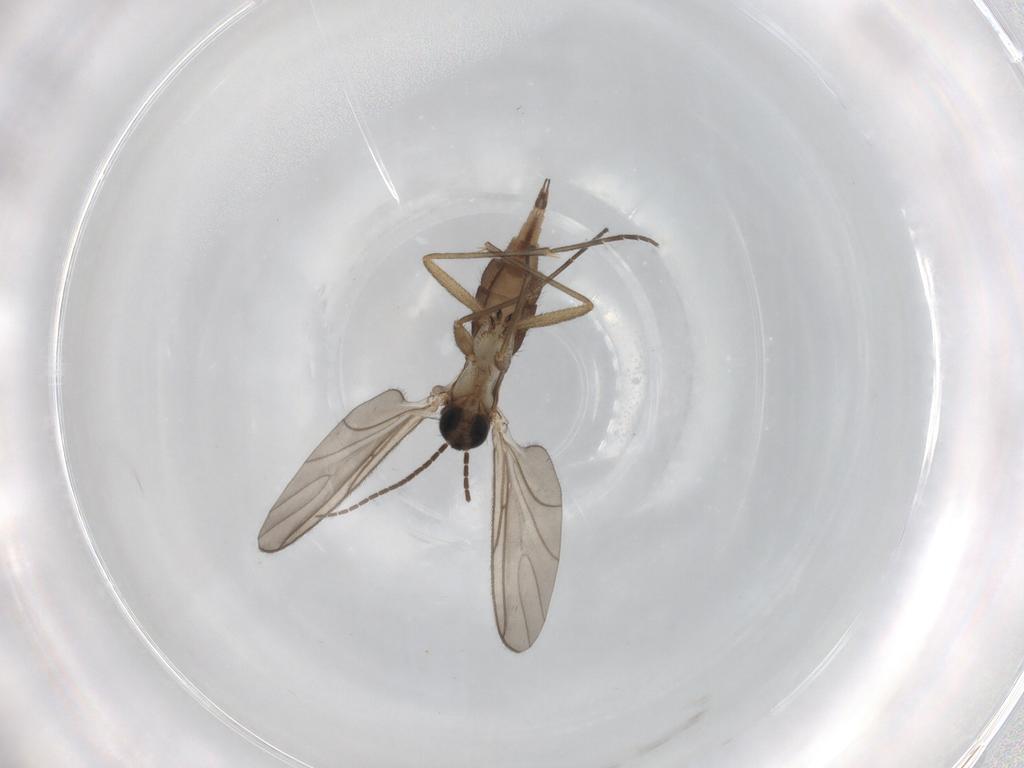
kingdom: Animalia
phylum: Arthropoda
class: Insecta
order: Diptera
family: Sciaridae
